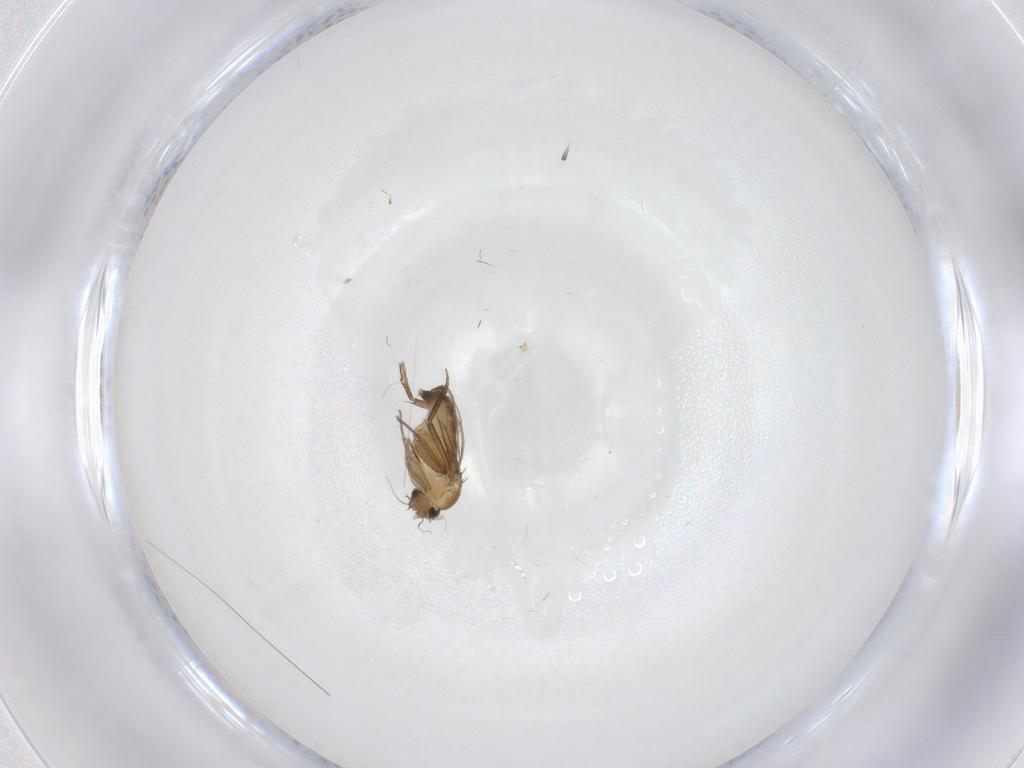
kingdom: Animalia
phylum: Arthropoda
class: Insecta
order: Diptera
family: Phoridae
